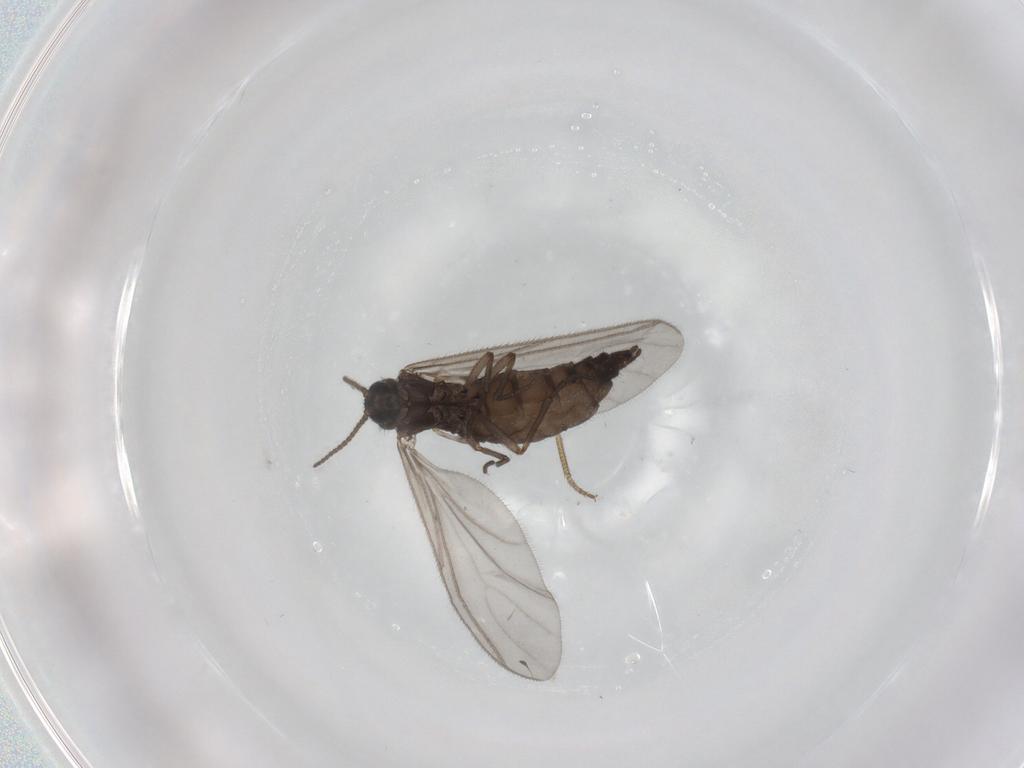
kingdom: Animalia
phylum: Arthropoda
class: Insecta
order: Diptera
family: Sciaridae
